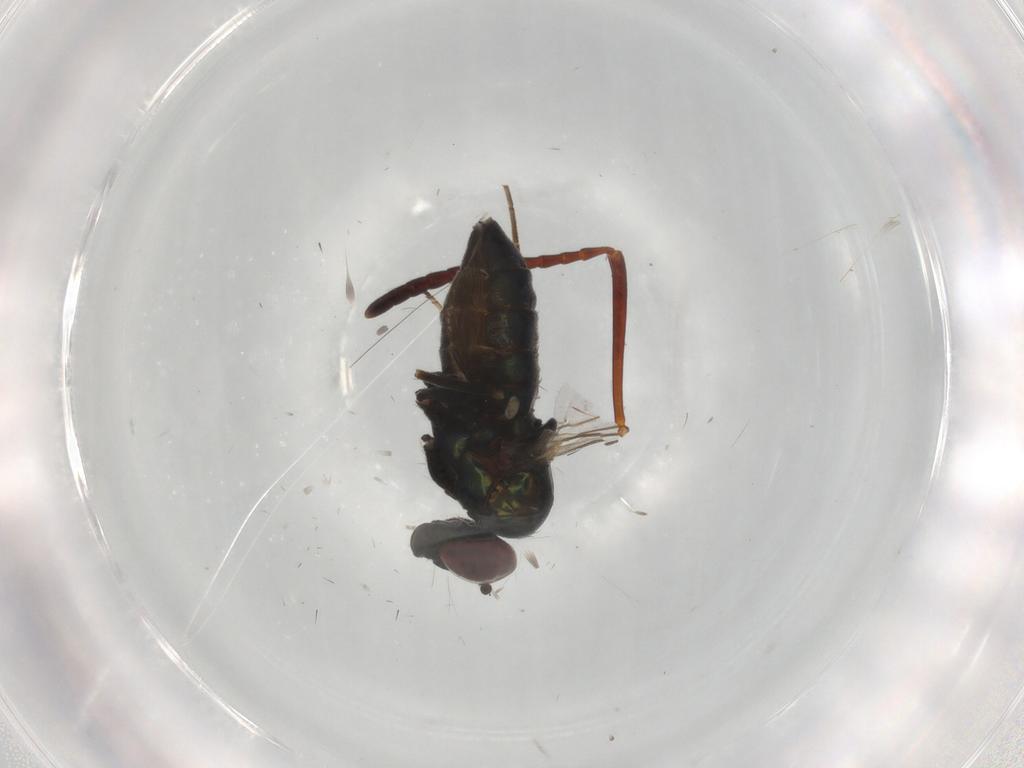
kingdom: Animalia
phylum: Arthropoda
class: Insecta
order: Diptera
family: Dolichopodidae
